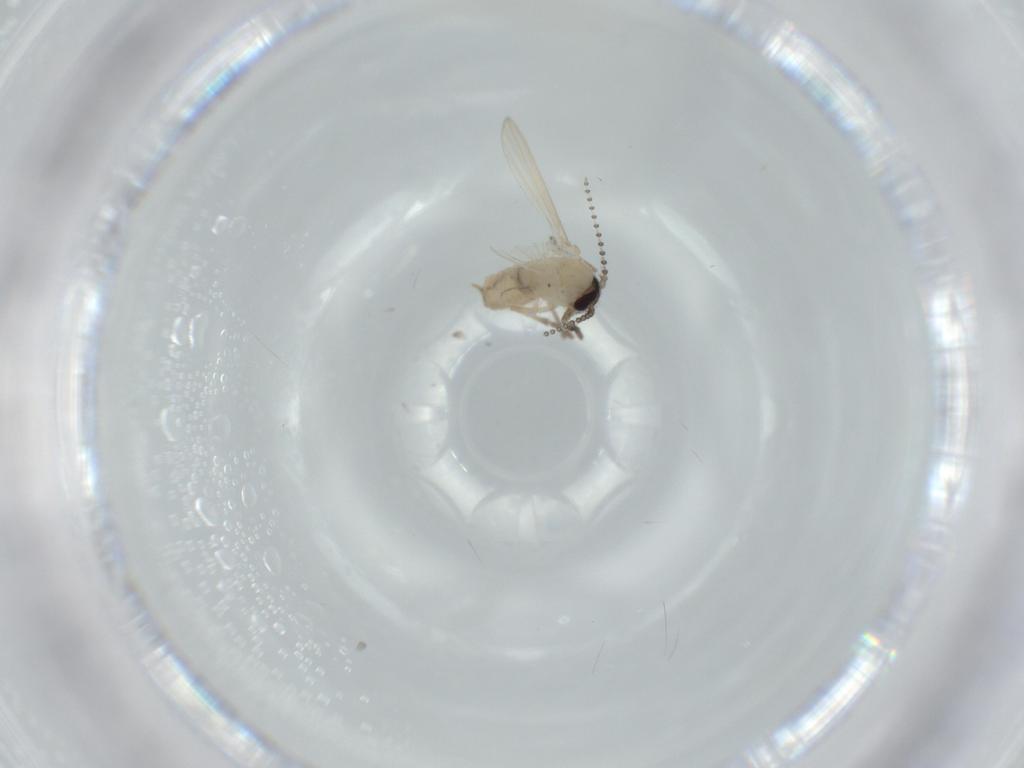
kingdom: Animalia
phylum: Arthropoda
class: Insecta
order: Diptera
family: Psychodidae
